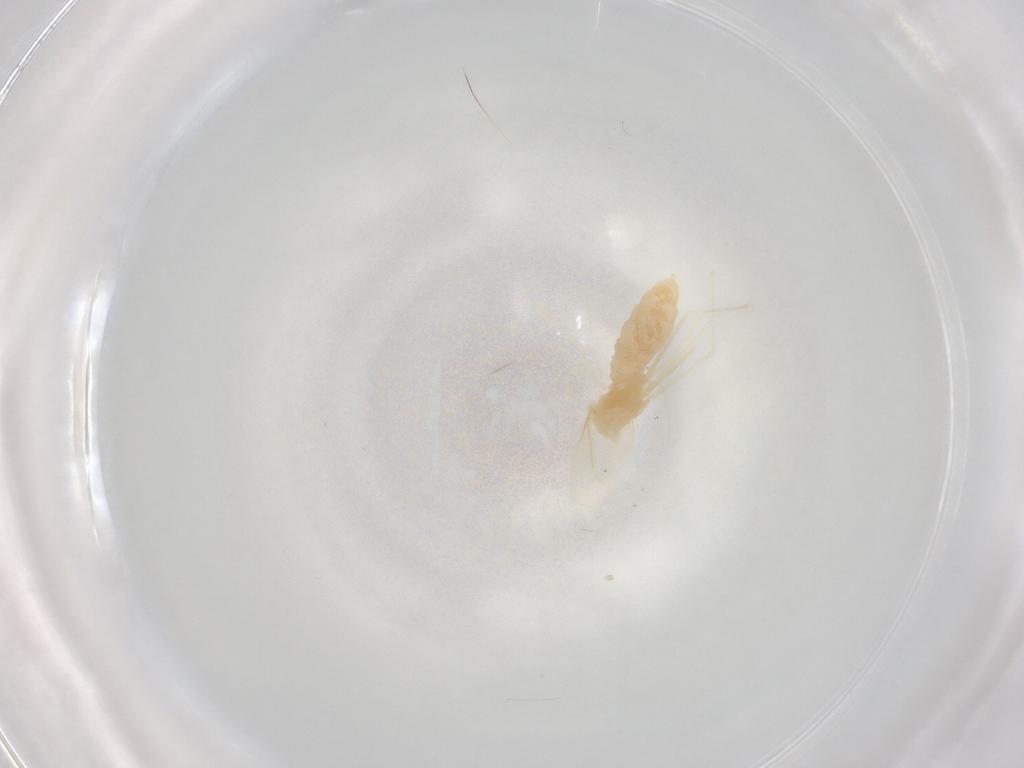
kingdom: Animalia
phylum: Arthropoda
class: Insecta
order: Diptera
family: Cecidomyiidae
